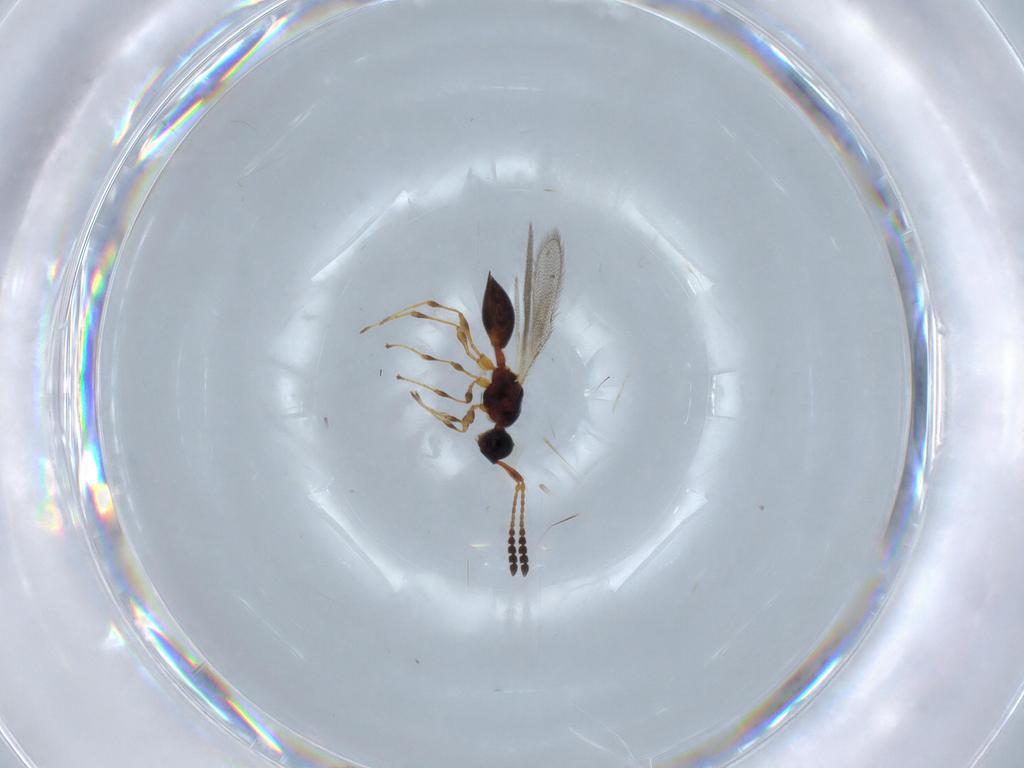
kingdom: Animalia
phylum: Arthropoda
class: Insecta
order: Hymenoptera
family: Diapriidae
